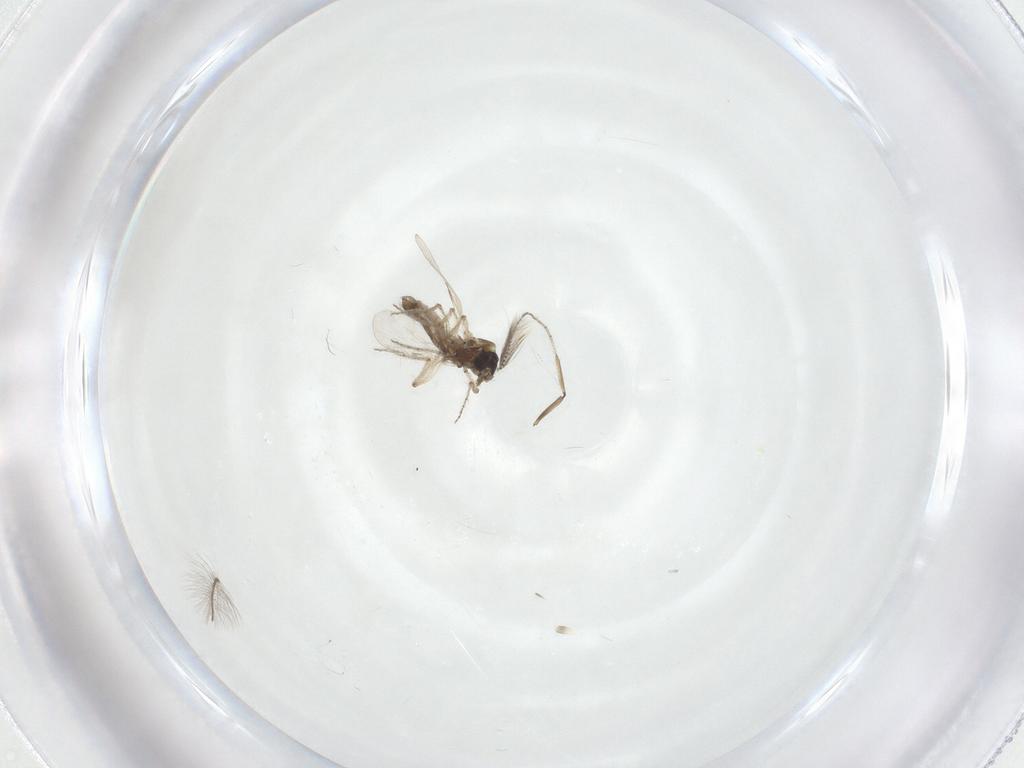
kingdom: Animalia
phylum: Arthropoda
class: Insecta
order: Diptera
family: Ceratopogonidae
